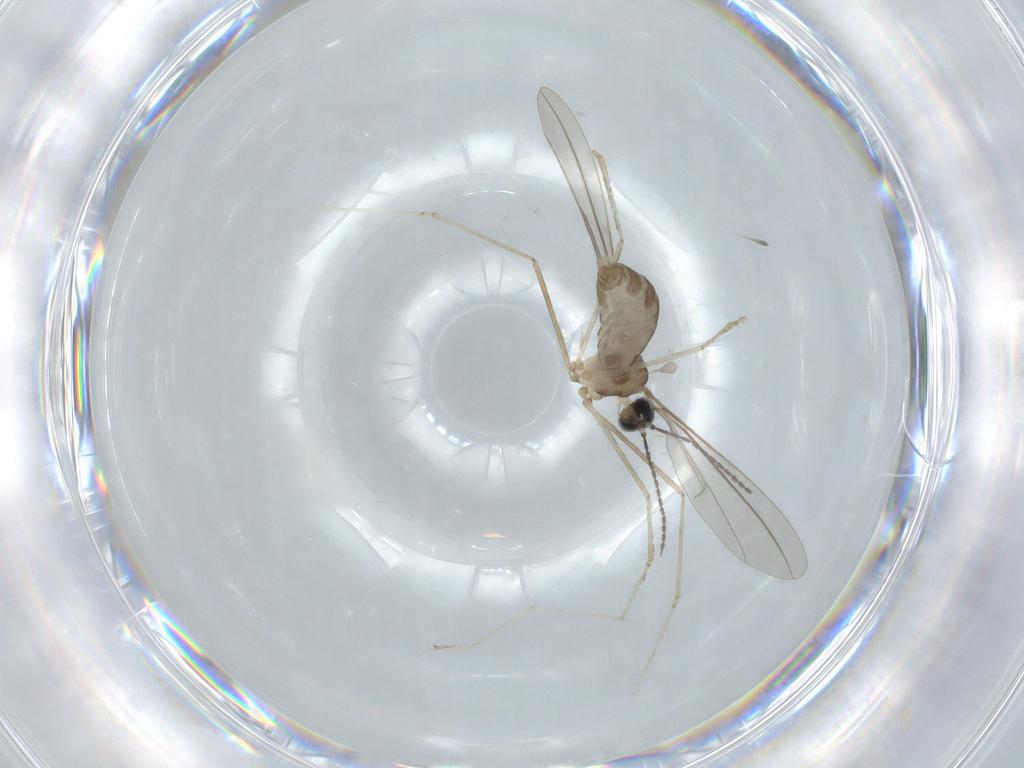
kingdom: Animalia
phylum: Arthropoda
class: Insecta
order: Diptera
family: Cecidomyiidae
